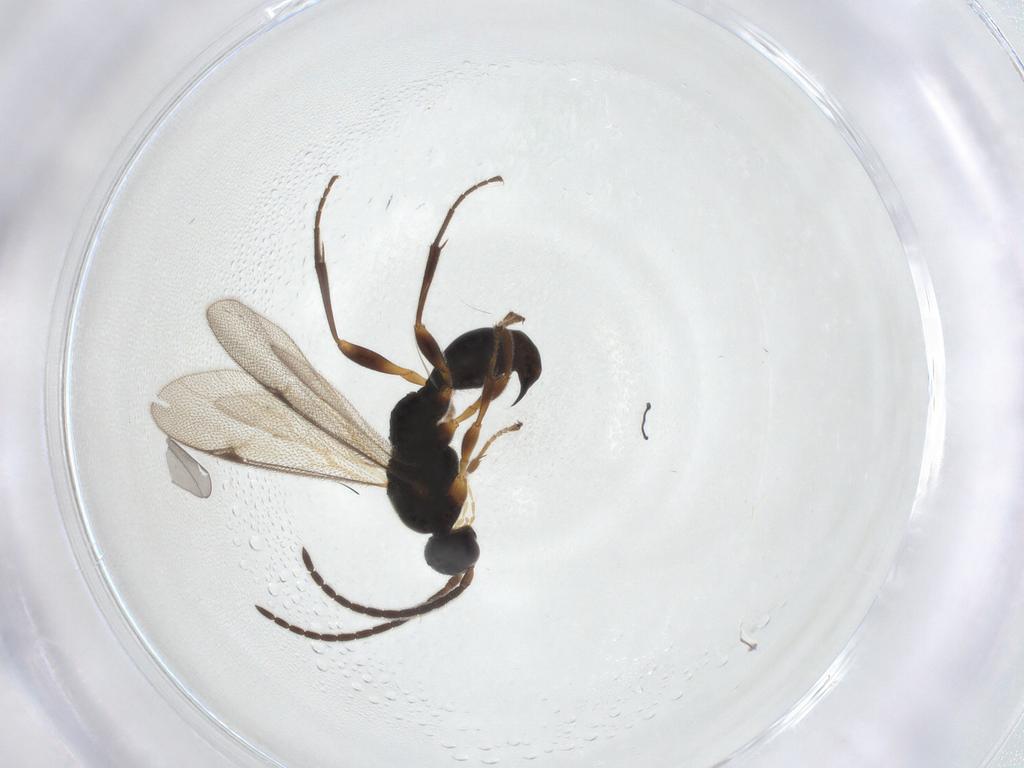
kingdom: Animalia
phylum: Arthropoda
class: Insecta
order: Hymenoptera
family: Proctotrupidae
